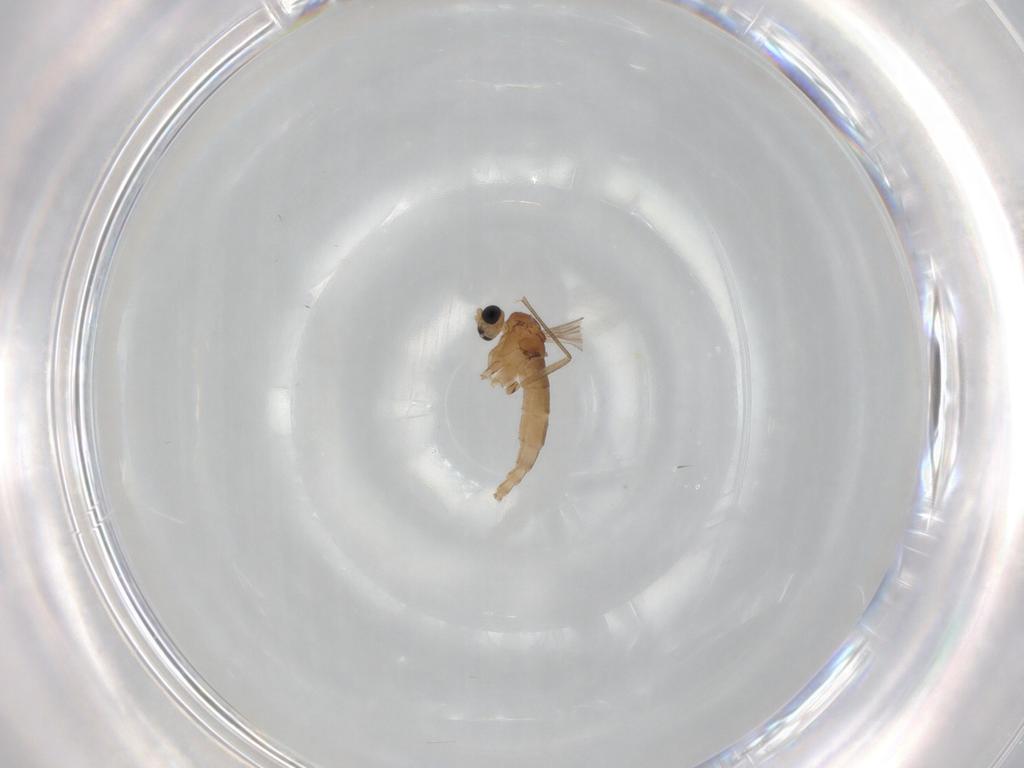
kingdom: Animalia
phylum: Arthropoda
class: Insecta
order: Diptera
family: Sciaridae
